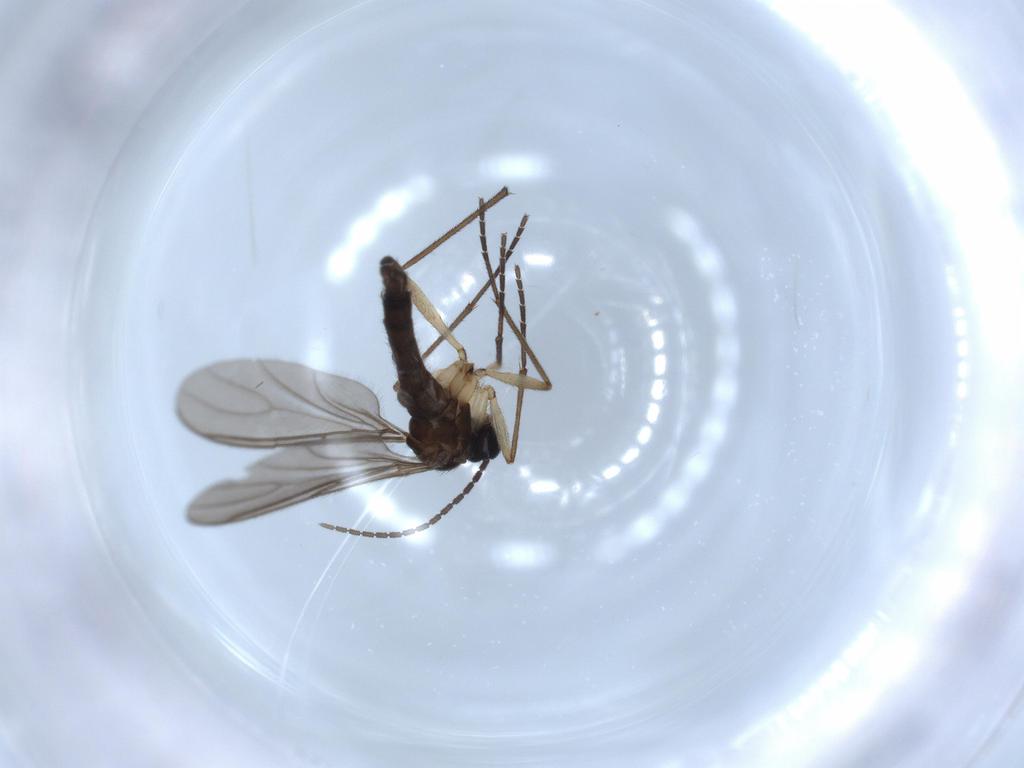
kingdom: Animalia
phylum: Arthropoda
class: Insecta
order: Diptera
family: Sciaridae
